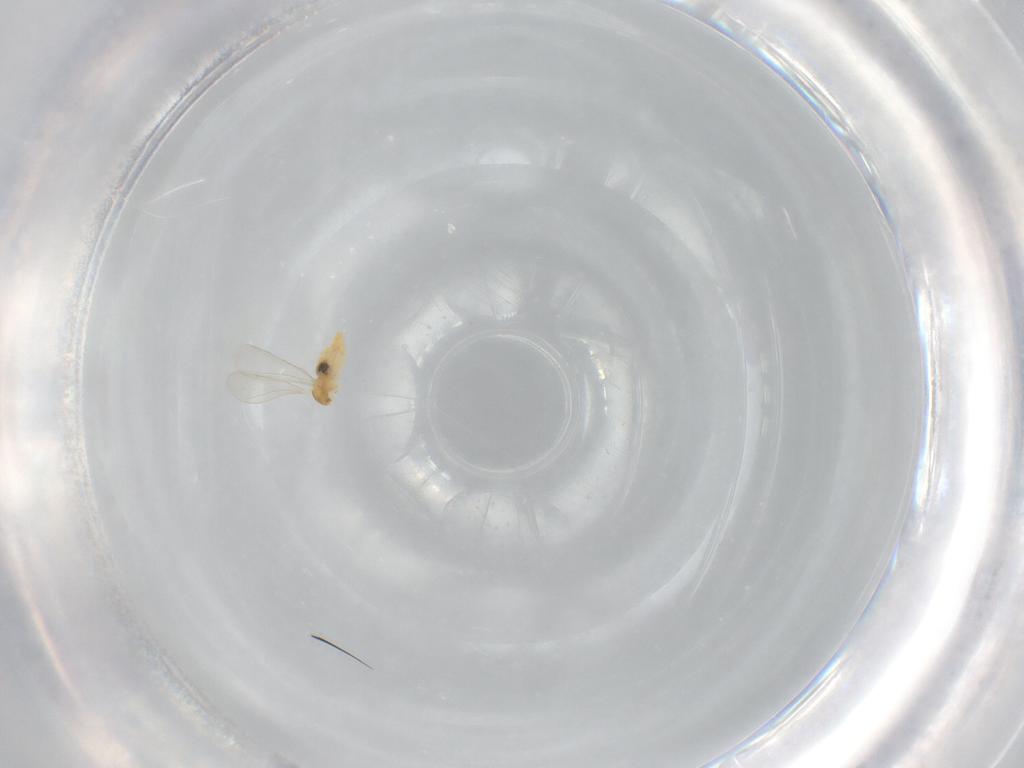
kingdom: Animalia
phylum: Arthropoda
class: Insecta
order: Diptera
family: Cecidomyiidae
